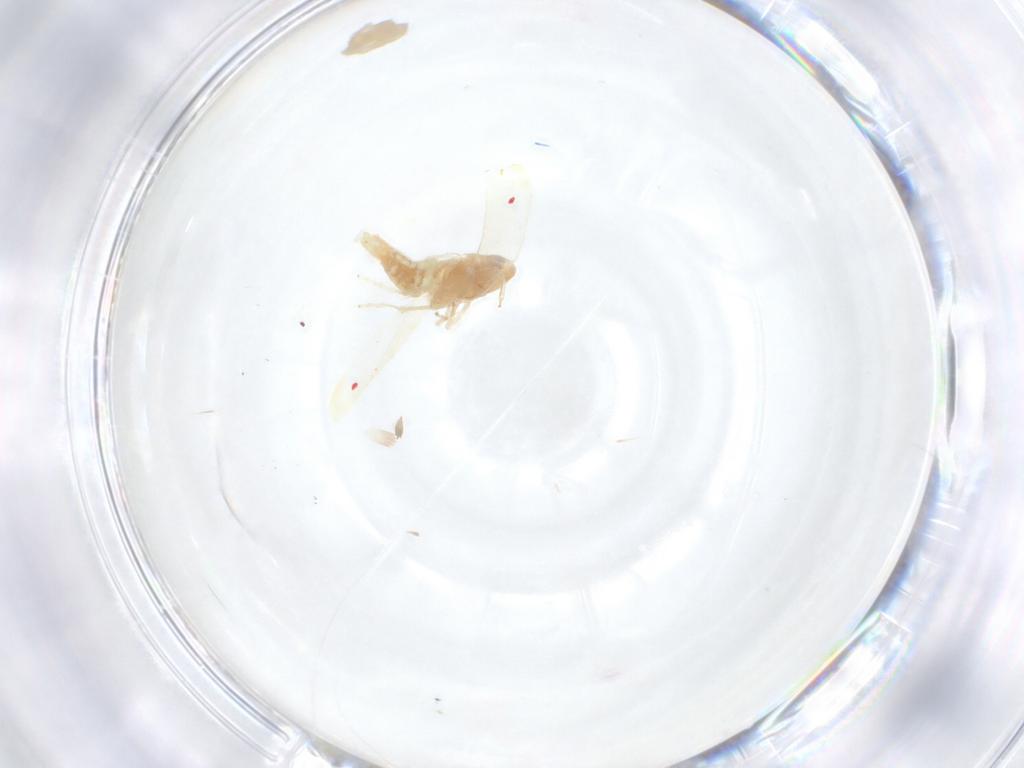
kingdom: Animalia
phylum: Arthropoda
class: Insecta
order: Hemiptera
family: Cicadellidae
